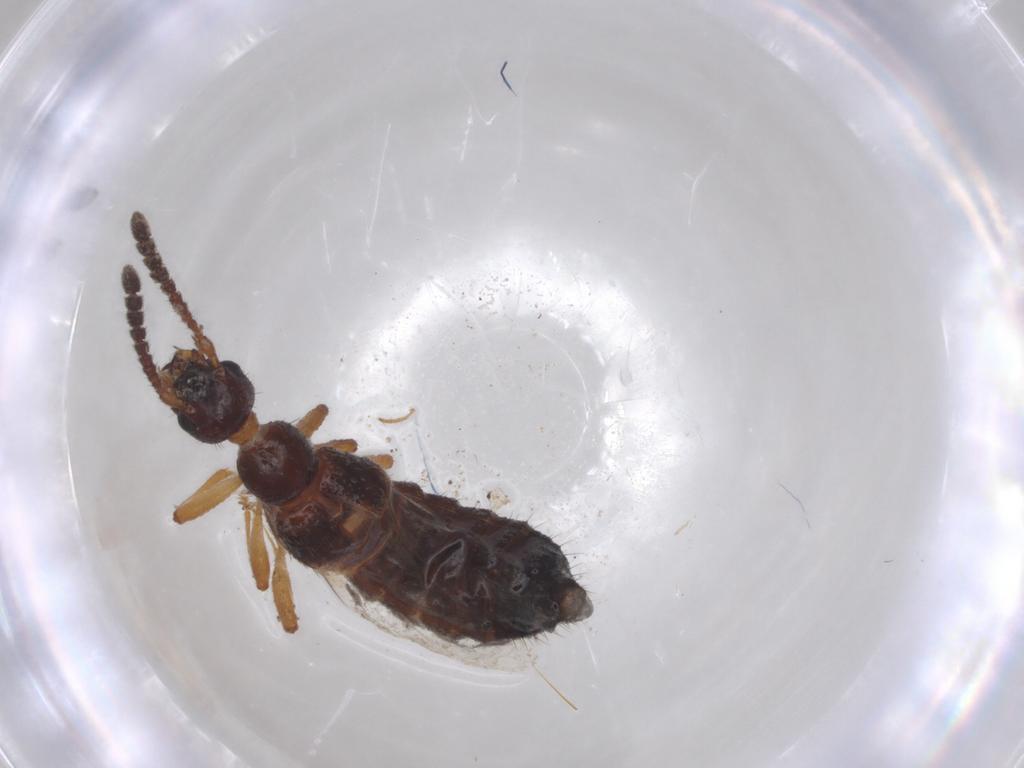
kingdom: Animalia
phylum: Arthropoda
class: Insecta
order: Coleoptera
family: Staphylinidae
